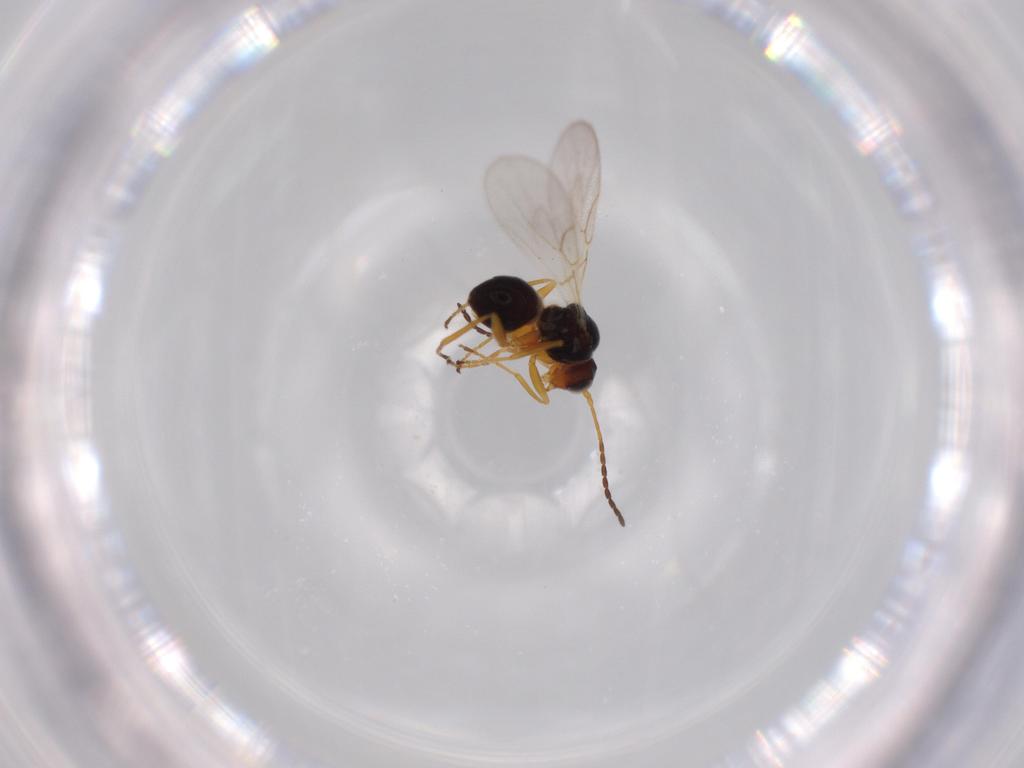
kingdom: Animalia
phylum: Arthropoda
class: Insecta
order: Hymenoptera
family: Figitidae
